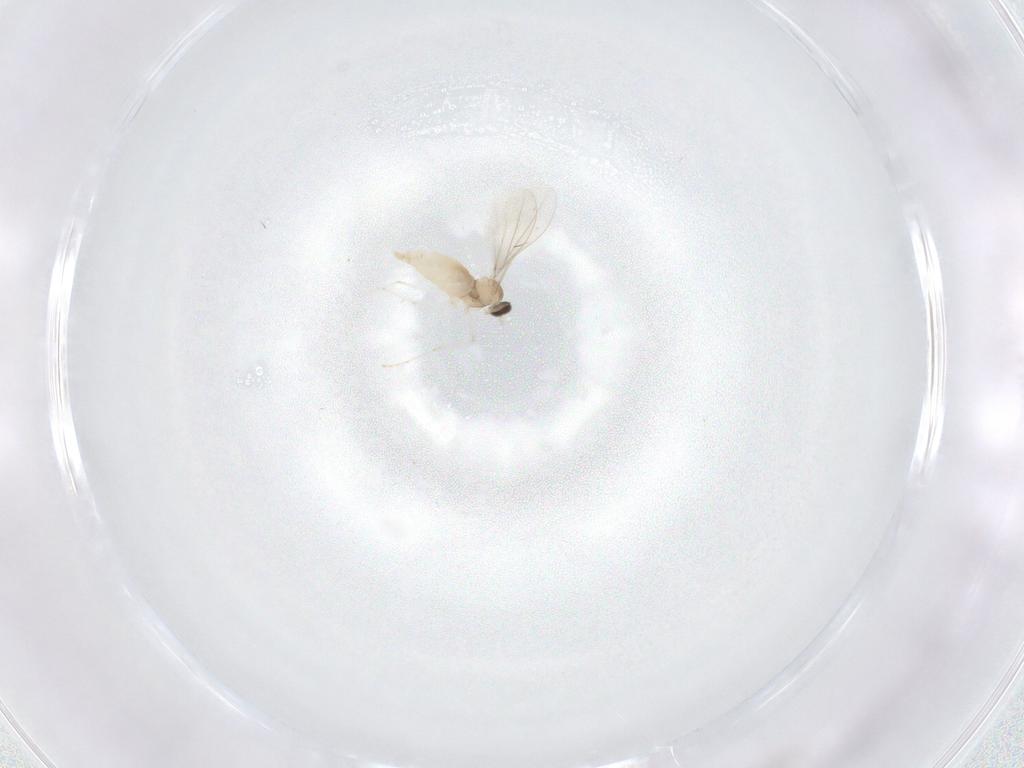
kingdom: Animalia
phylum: Arthropoda
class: Insecta
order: Diptera
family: Cecidomyiidae
